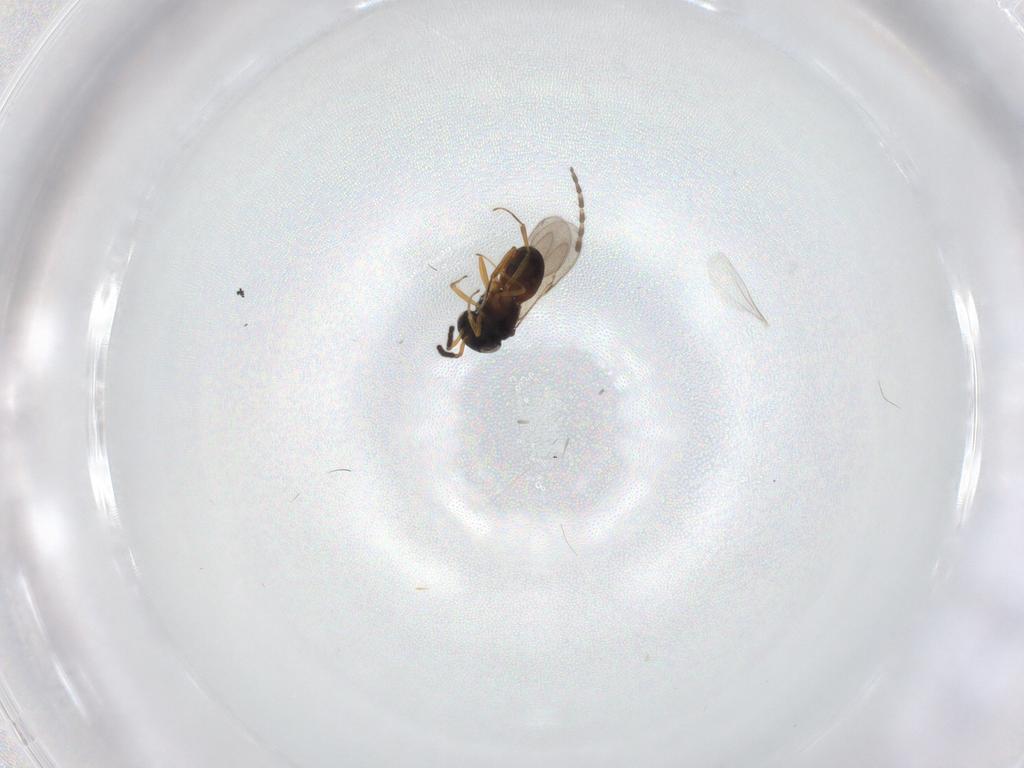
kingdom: Animalia
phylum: Arthropoda
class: Insecta
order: Hymenoptera
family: Scelionidae
